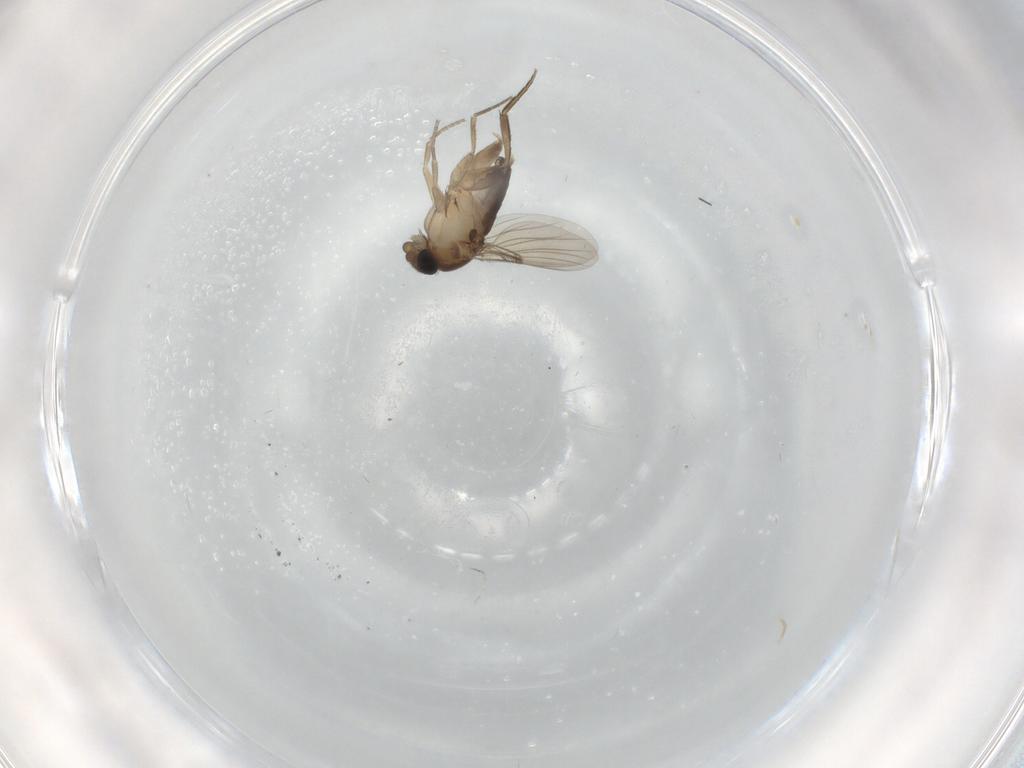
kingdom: Animalia
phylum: Arthropoda
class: Insecta
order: Diptera
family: Phoridae
